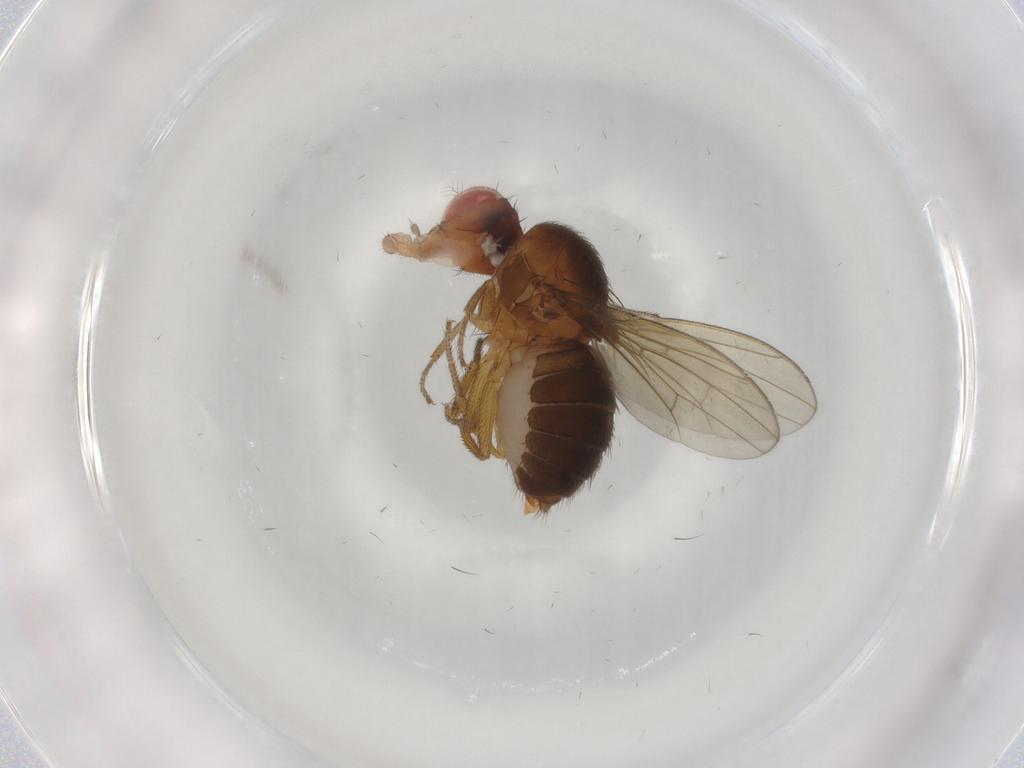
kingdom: Animalia
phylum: Arthropoda
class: Insecta
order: Diptera
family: Drosophilidae
